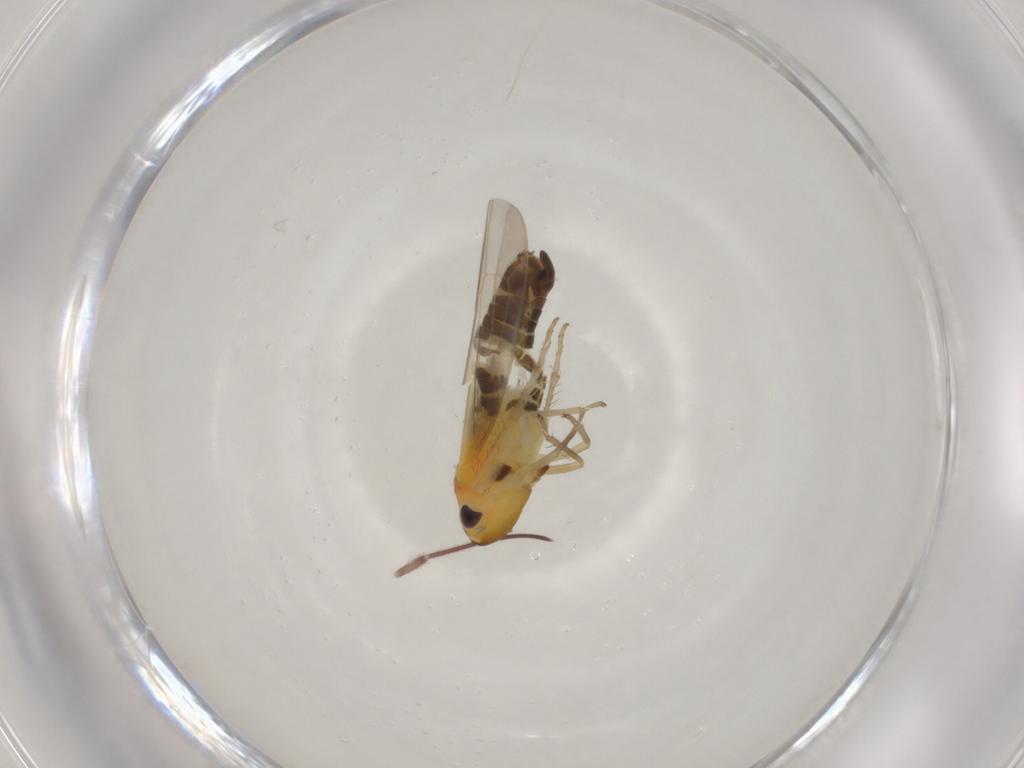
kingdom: Animalia
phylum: Arthropoda
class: Insecta
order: Hemiptera
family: Cicadellidae
